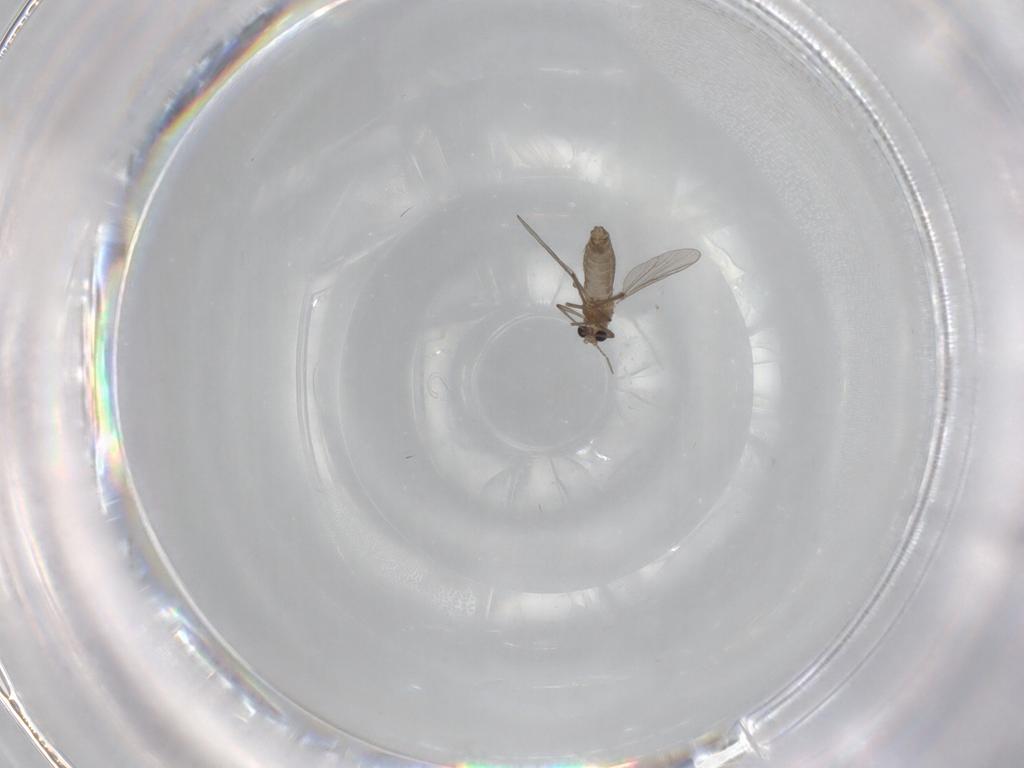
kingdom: Animalia
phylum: Arthropoda
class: Insecta
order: Diptera
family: Chironomidae
